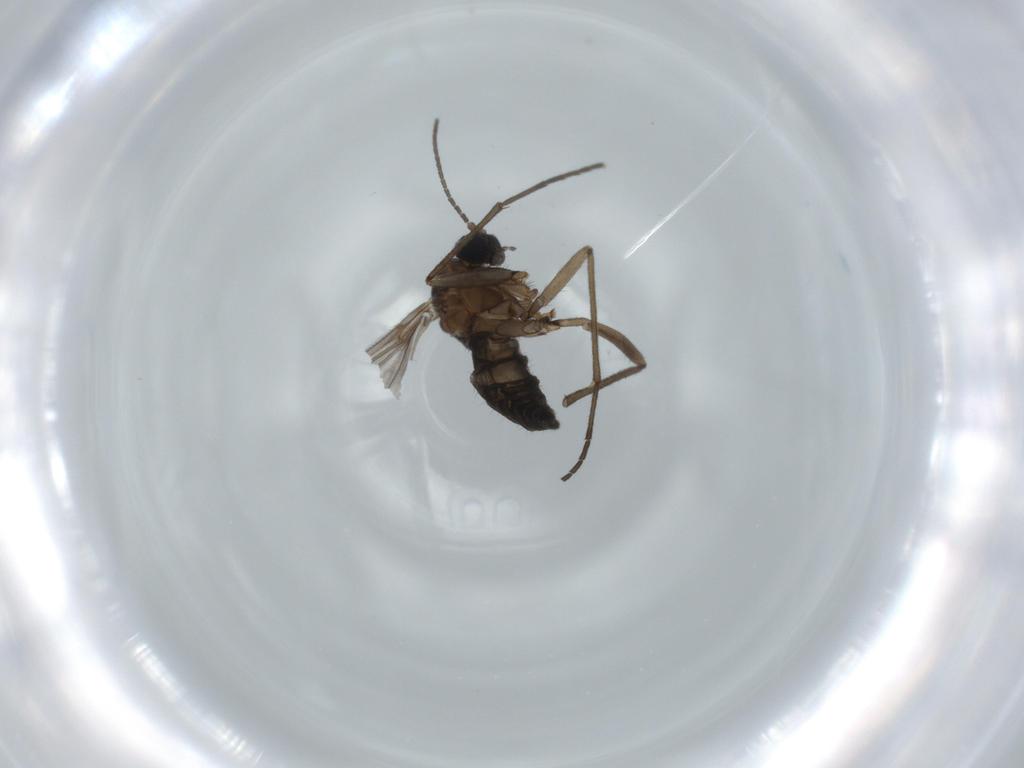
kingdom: Animalia
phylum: Arthropoda
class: Insecta
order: Diptera
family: Sciaridae
